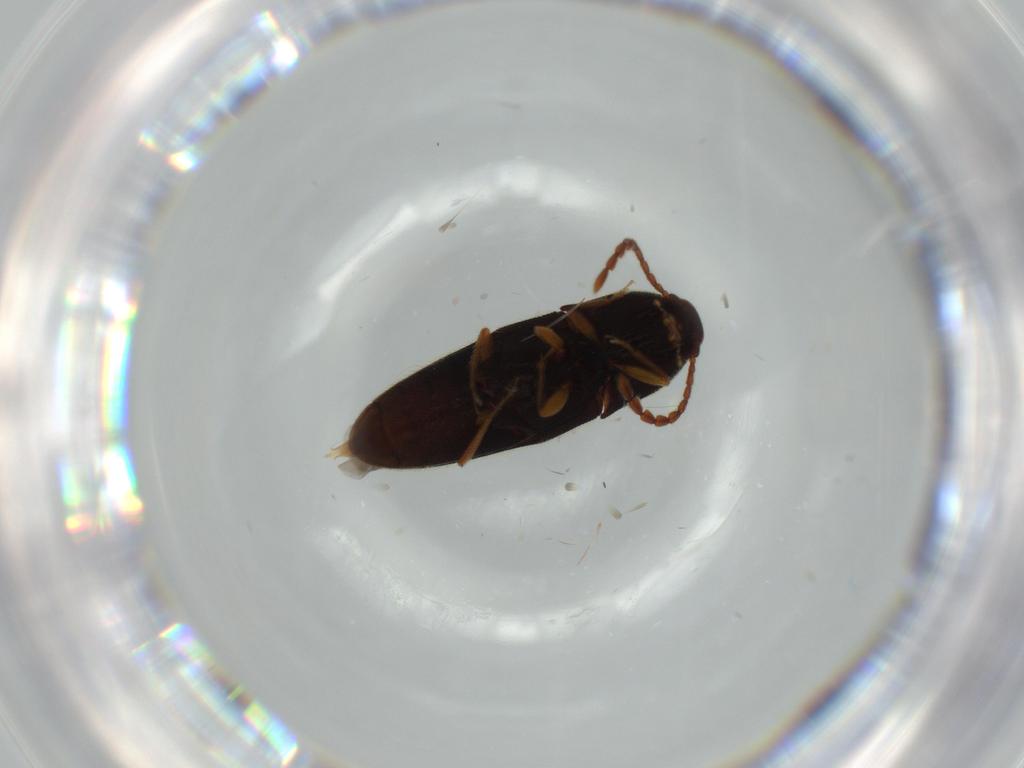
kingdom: Animalia
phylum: Arthropoda
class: Insecta
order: Coleoptera
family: Elateridae
